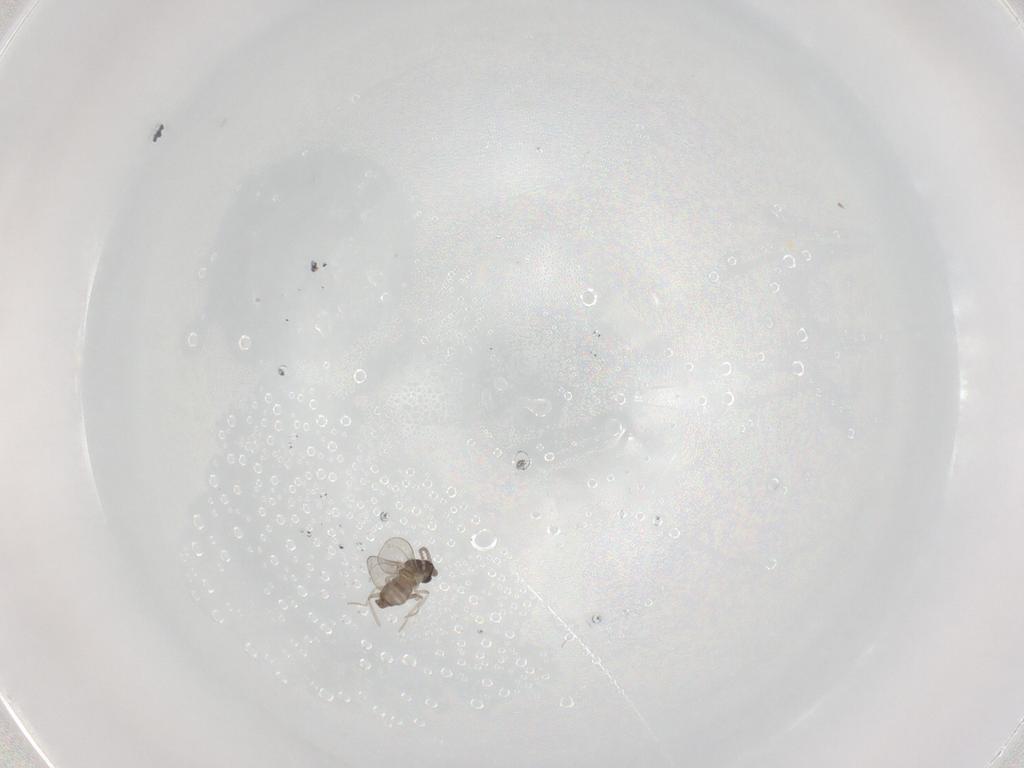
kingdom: Animalia
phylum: Arthropoda
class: Insecta
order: Diptera
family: Cecidomyiidae
